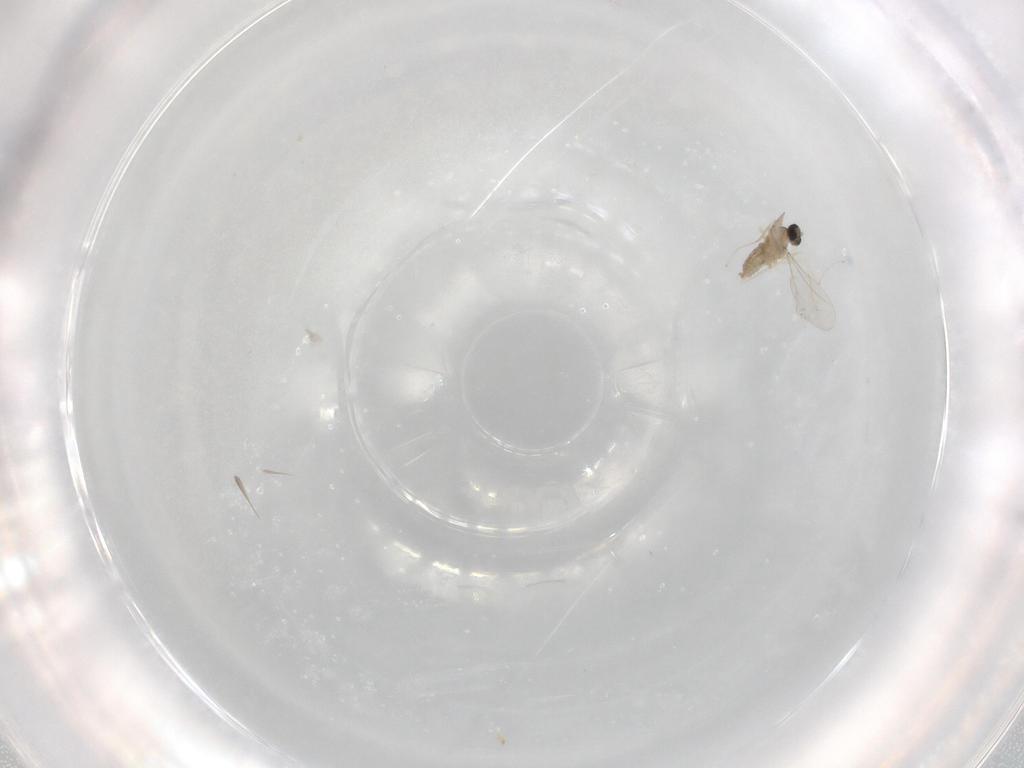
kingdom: Animalia
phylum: Arthropoda
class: Insecta
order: Diptera
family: Cecidomyiidae
